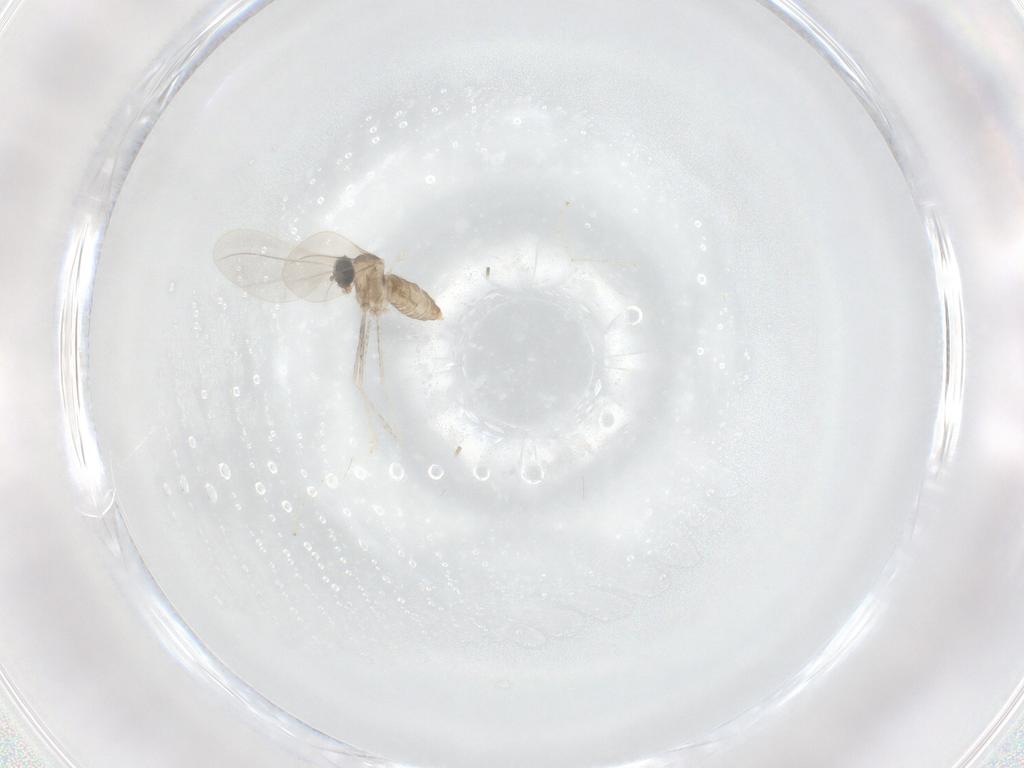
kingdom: Animalia
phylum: Arthropoda
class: Insecta
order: Diptera
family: Cecidomyiidae
